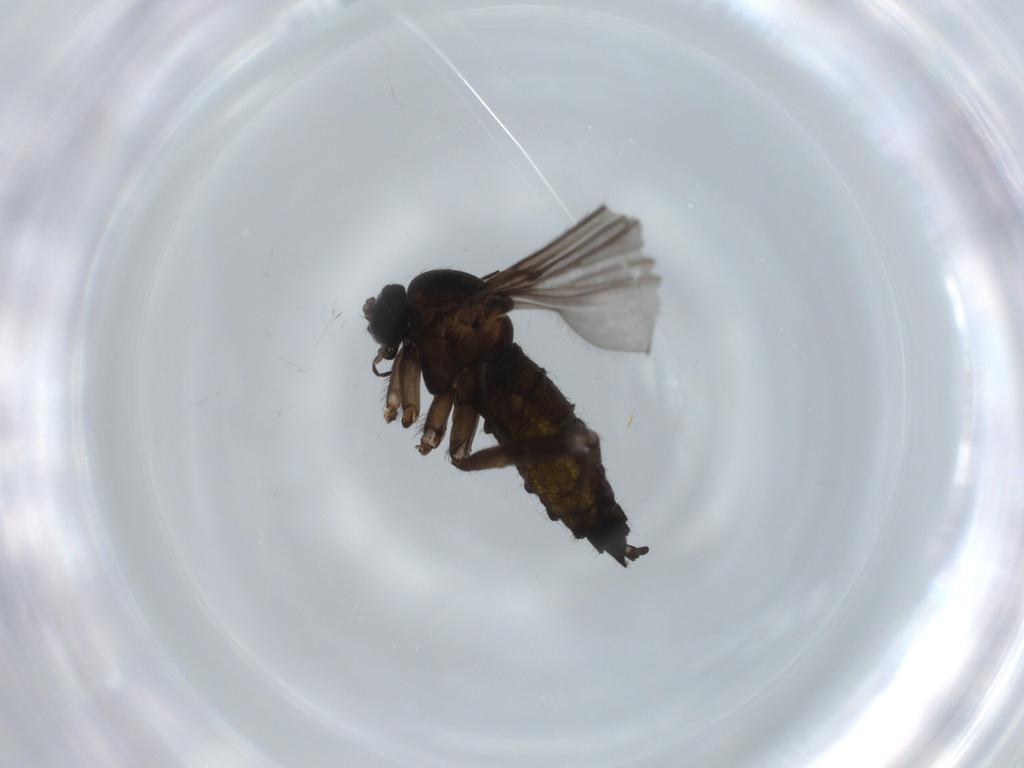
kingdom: Animalia
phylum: Arthropoda
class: Insecta
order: Diptera
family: Sciaridae
